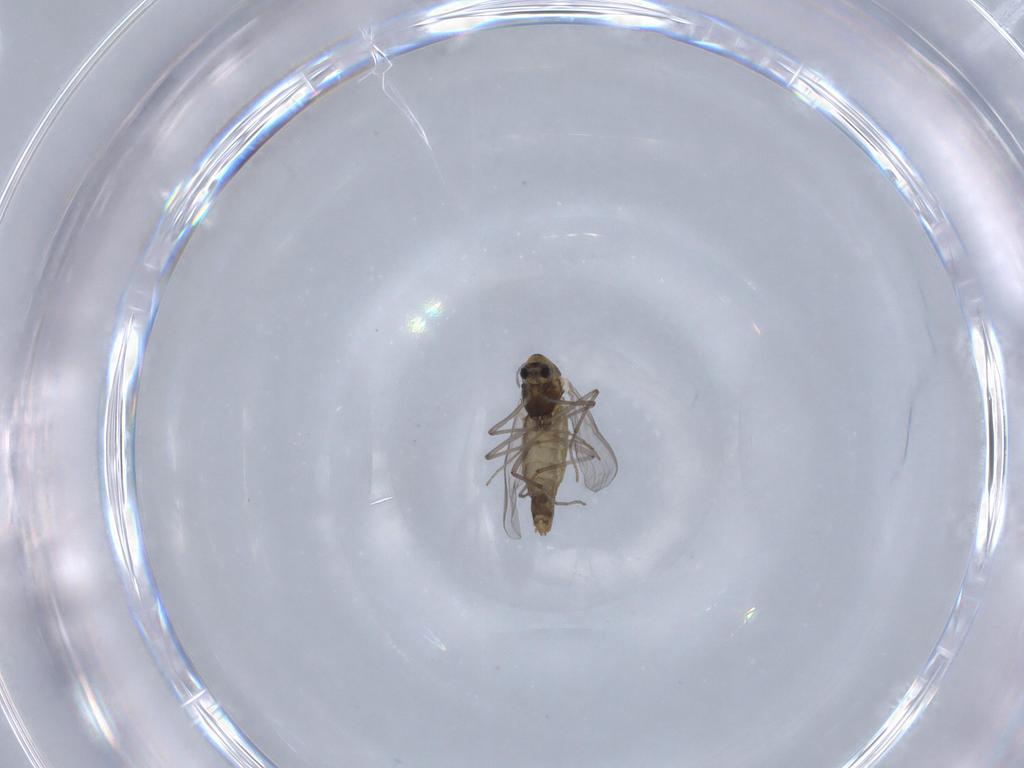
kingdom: Animalia
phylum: Arthropoda
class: Insecta
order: Diptera
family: Chironomidae
